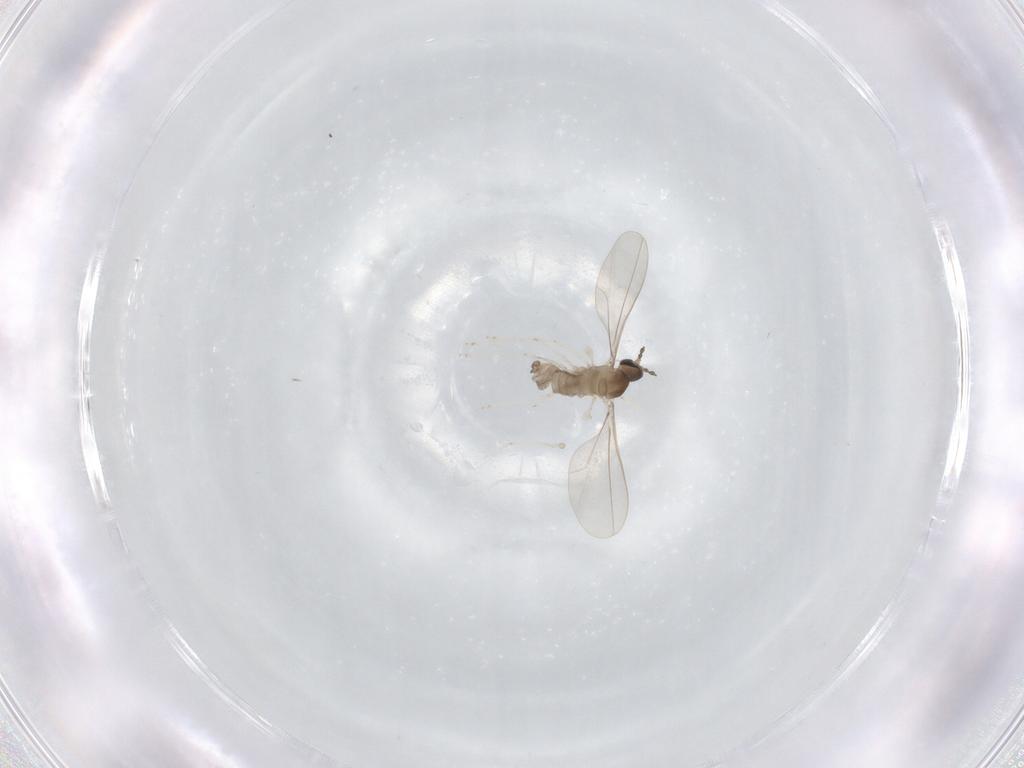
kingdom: Animalia
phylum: Arthropoda
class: Insecta
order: Diptera
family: Cecidomyiidae
